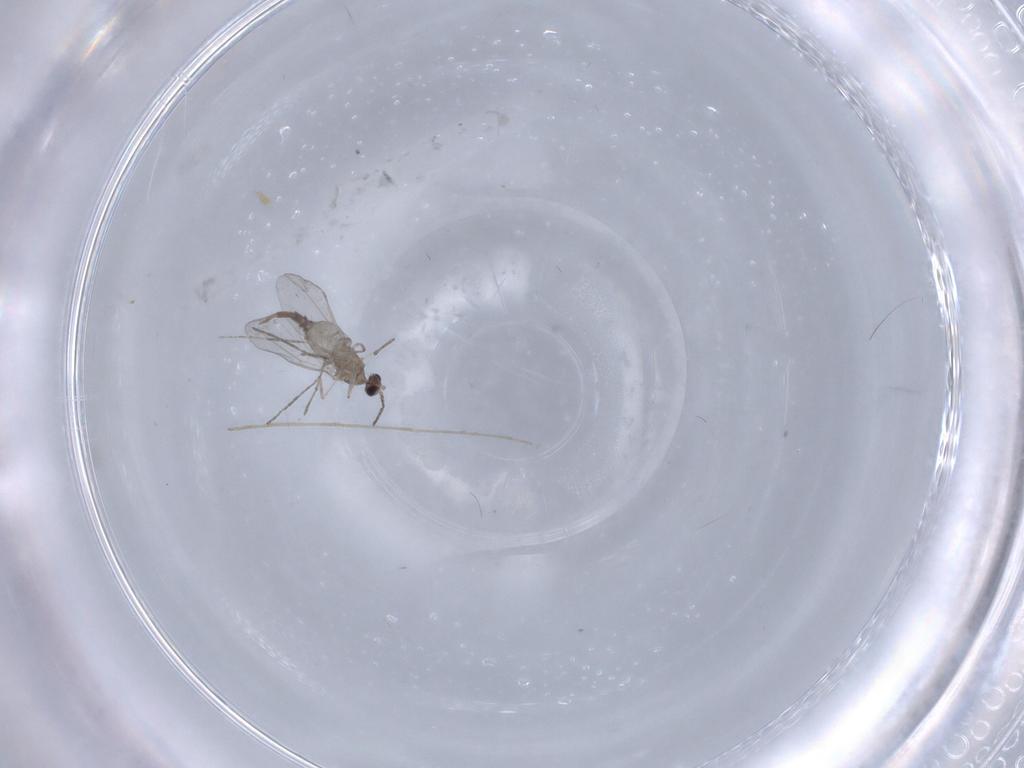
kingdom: Animalia
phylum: Arthropoda
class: Insecta
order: Diptera
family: Cecidomyiidae
